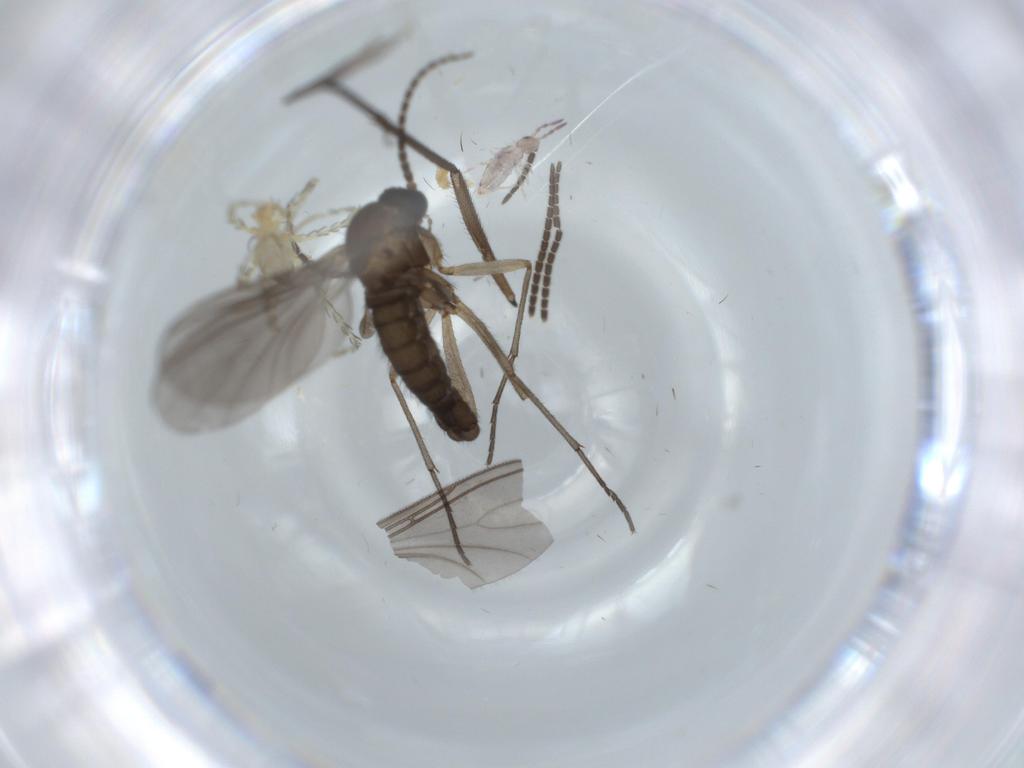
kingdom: Animalia
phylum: Arthropoda
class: Insecta
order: Diptera
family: Sciaridae
